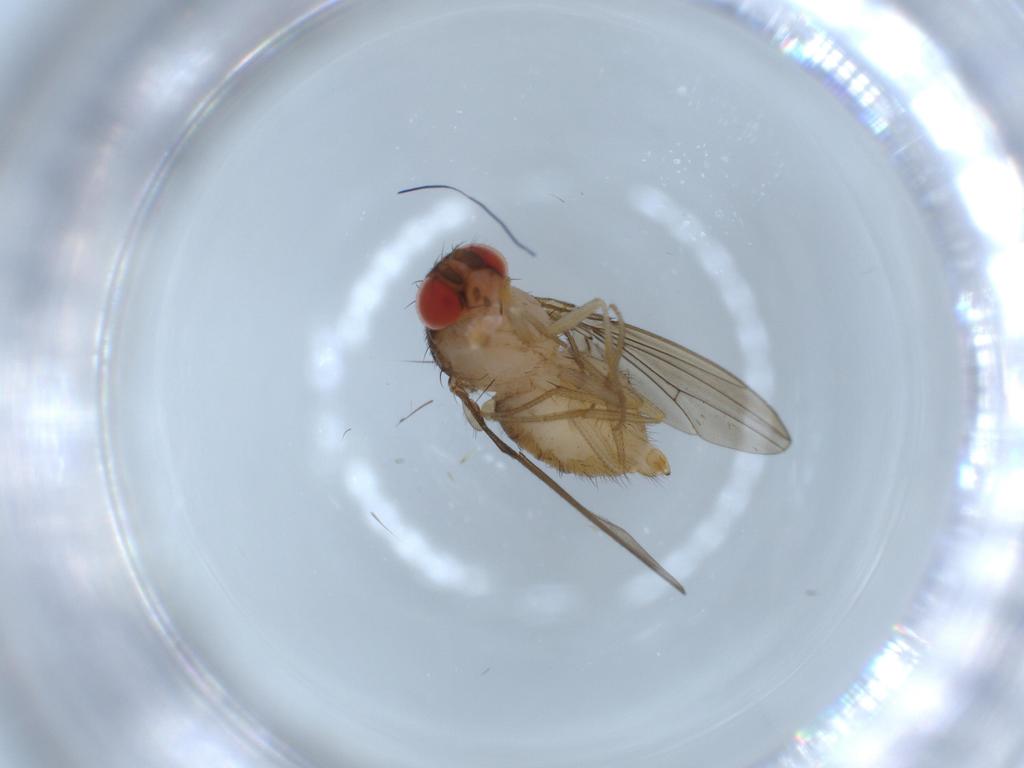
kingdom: Animalia
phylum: Arthropoda
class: Insecta
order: Diptera
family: Drosophilidae
